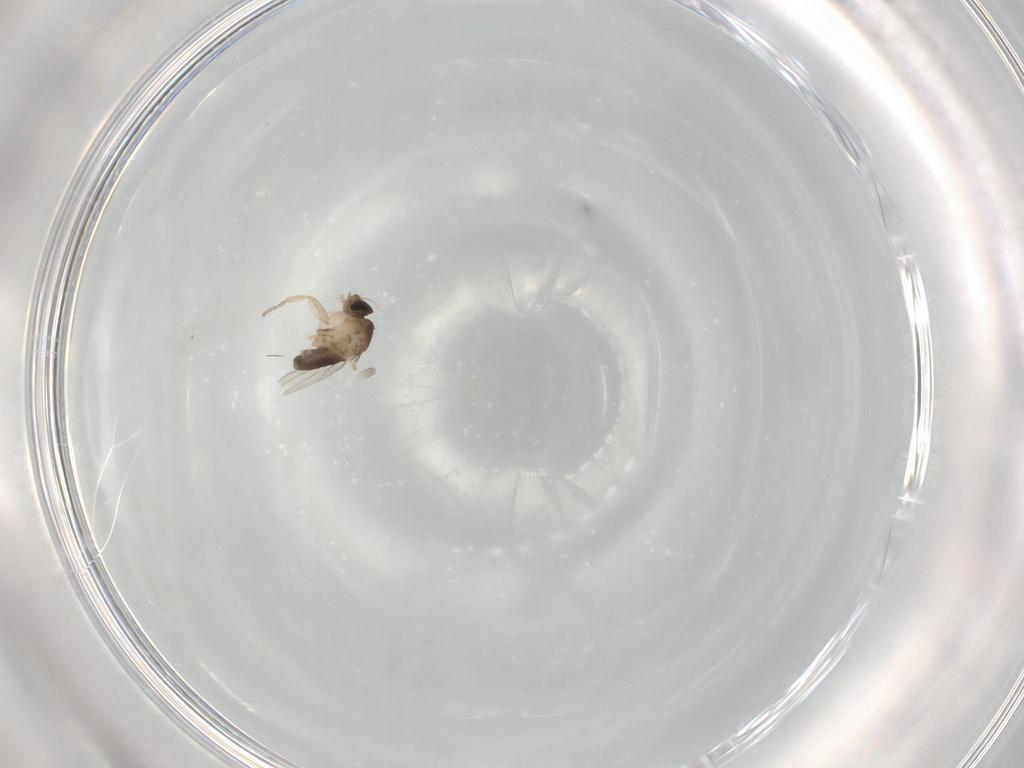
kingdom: Animalia
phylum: Arthropoda
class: Insecta
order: Diptera
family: Phoridae
